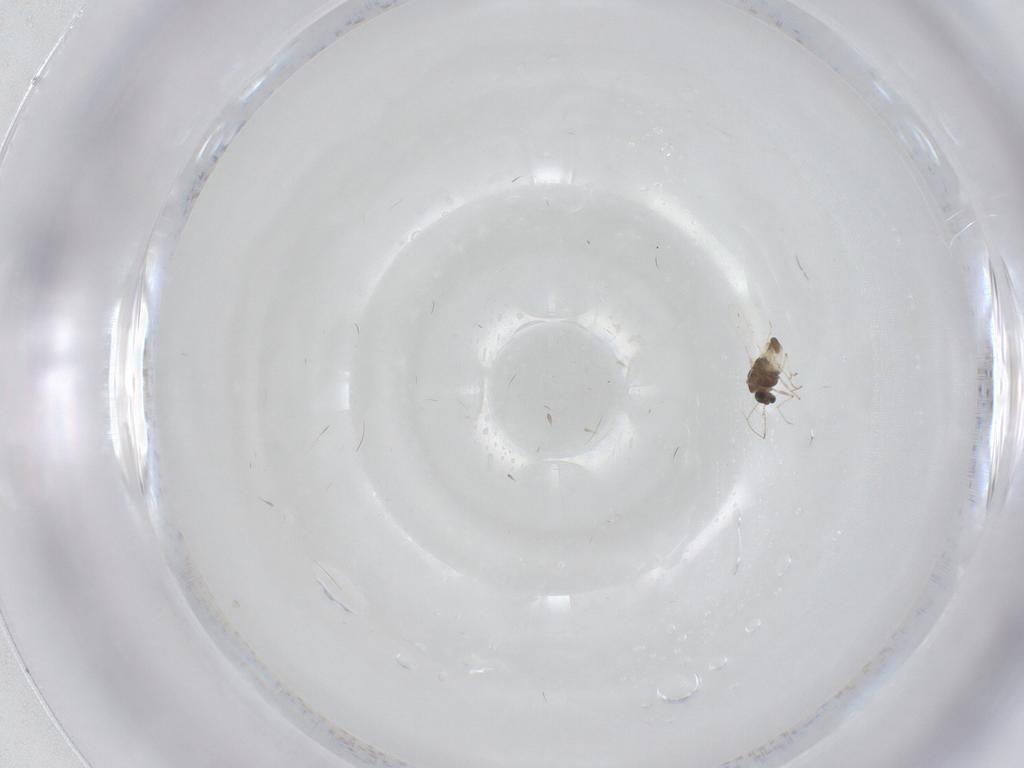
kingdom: Animalia
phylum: Arthropoda
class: Insecta
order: Diptera
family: Chironomidae
